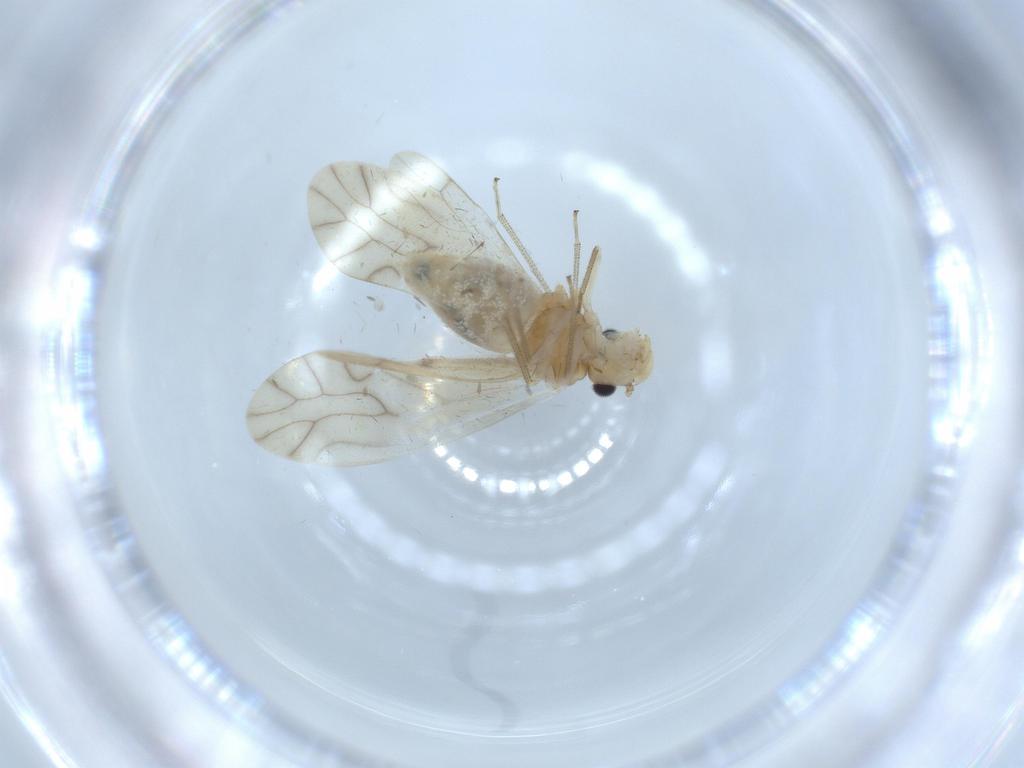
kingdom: Animalia
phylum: Arthropoda
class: Insecta
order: Psocodea
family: Caeciliusidae
